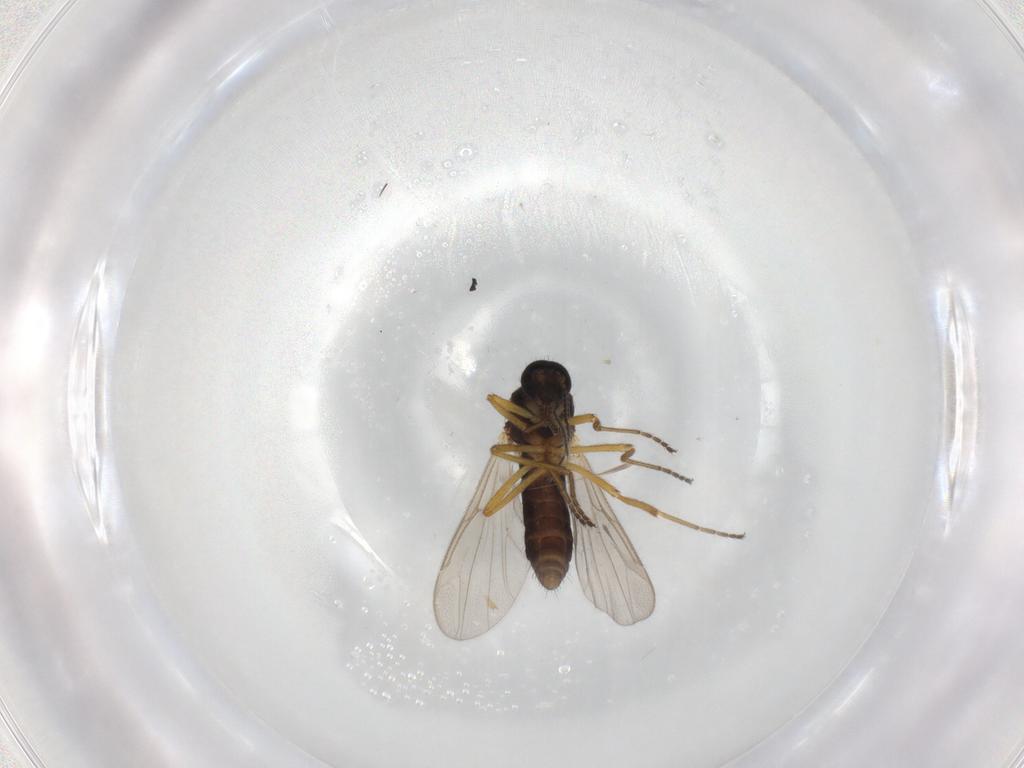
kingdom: Animalia
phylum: Arthropoda
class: Insecta
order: Diptera
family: Ceratopogonidae
